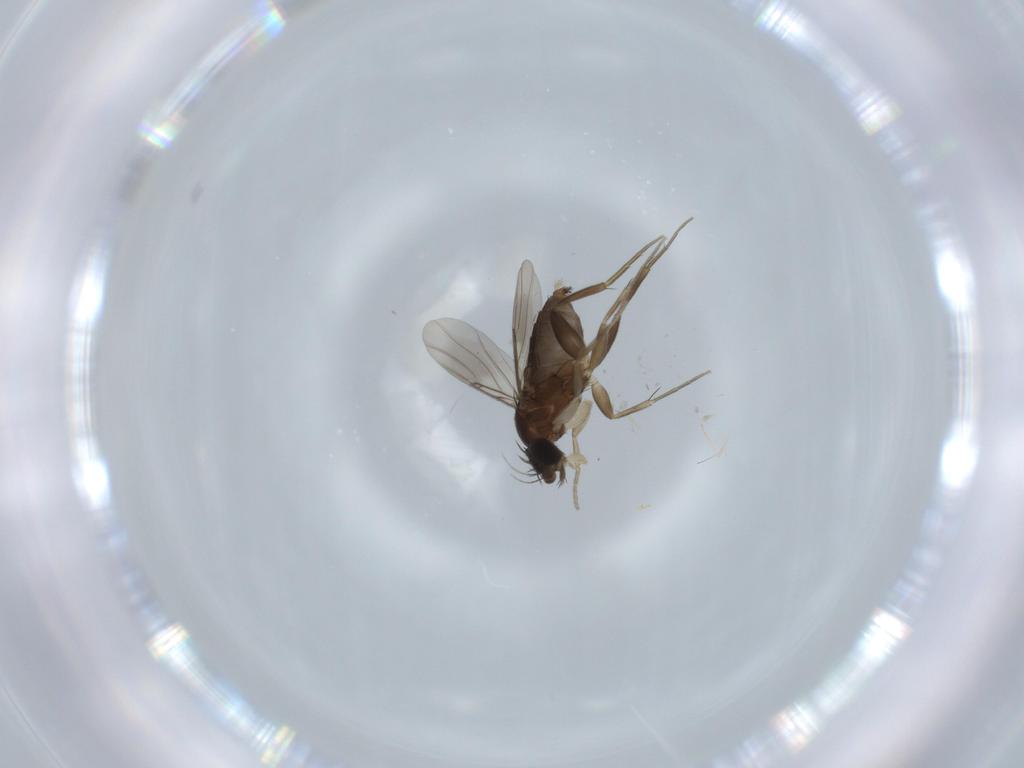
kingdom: Animalia
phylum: Arthropoda
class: Insecta
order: Diptera
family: Phoridae
